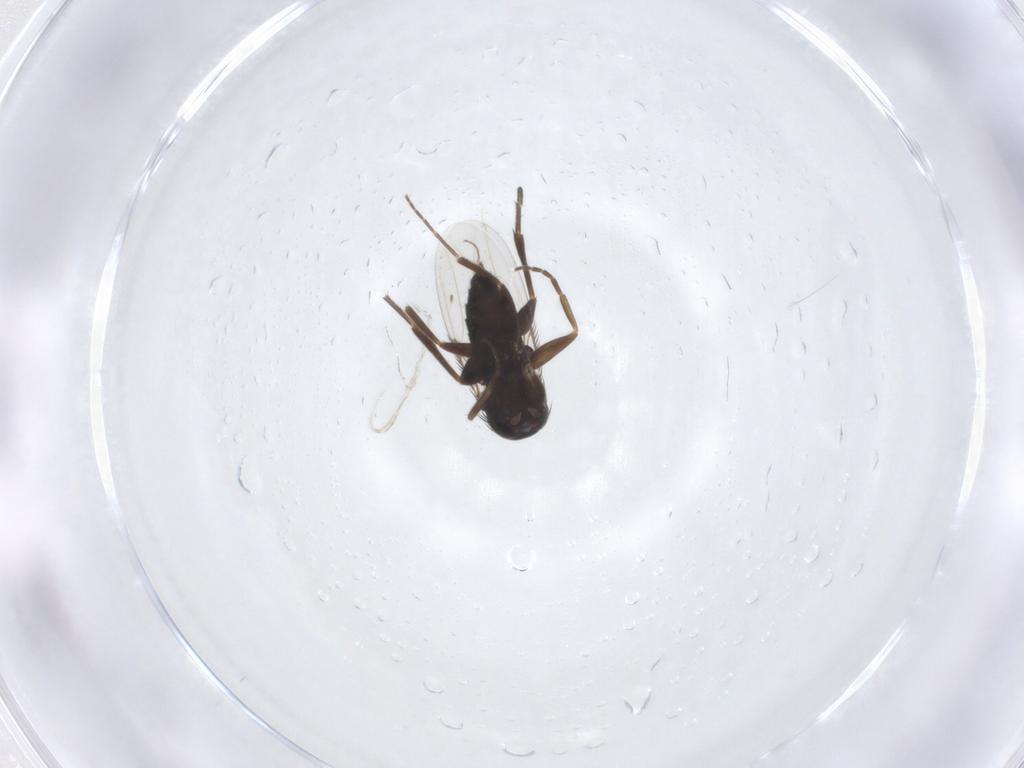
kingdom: Animalia
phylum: Arthropoda
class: Insecta
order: Diptera
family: Phoridae
